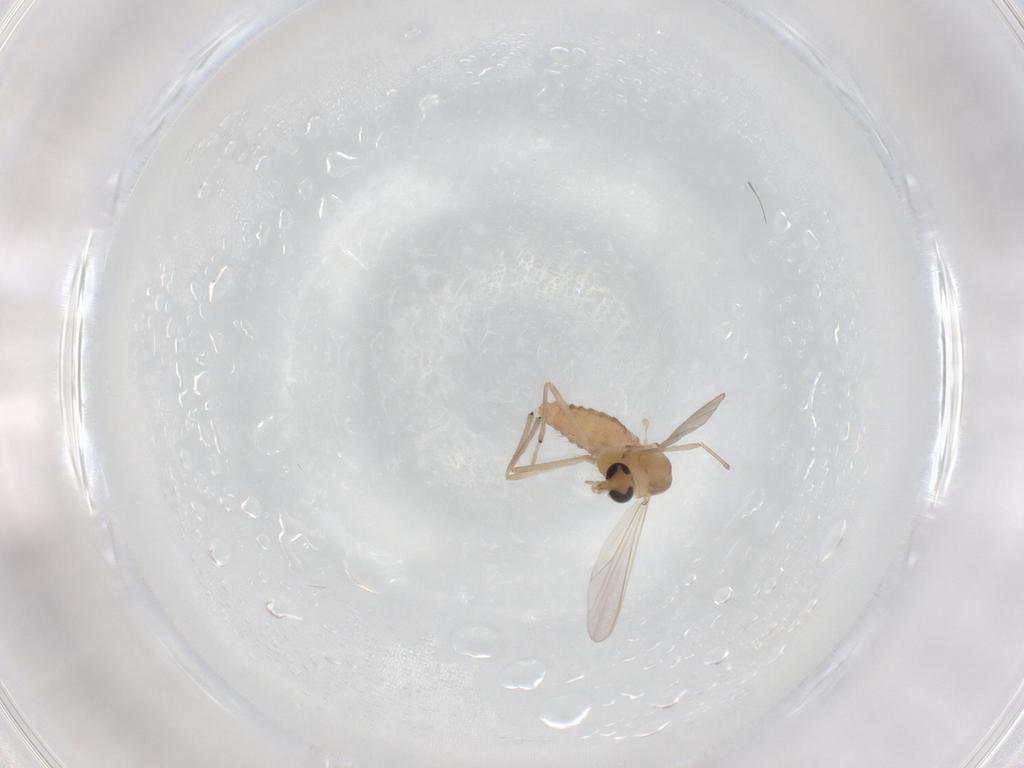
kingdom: Animalia
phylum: Arthropoda
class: Insecta
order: Diptera
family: Chironomidae
